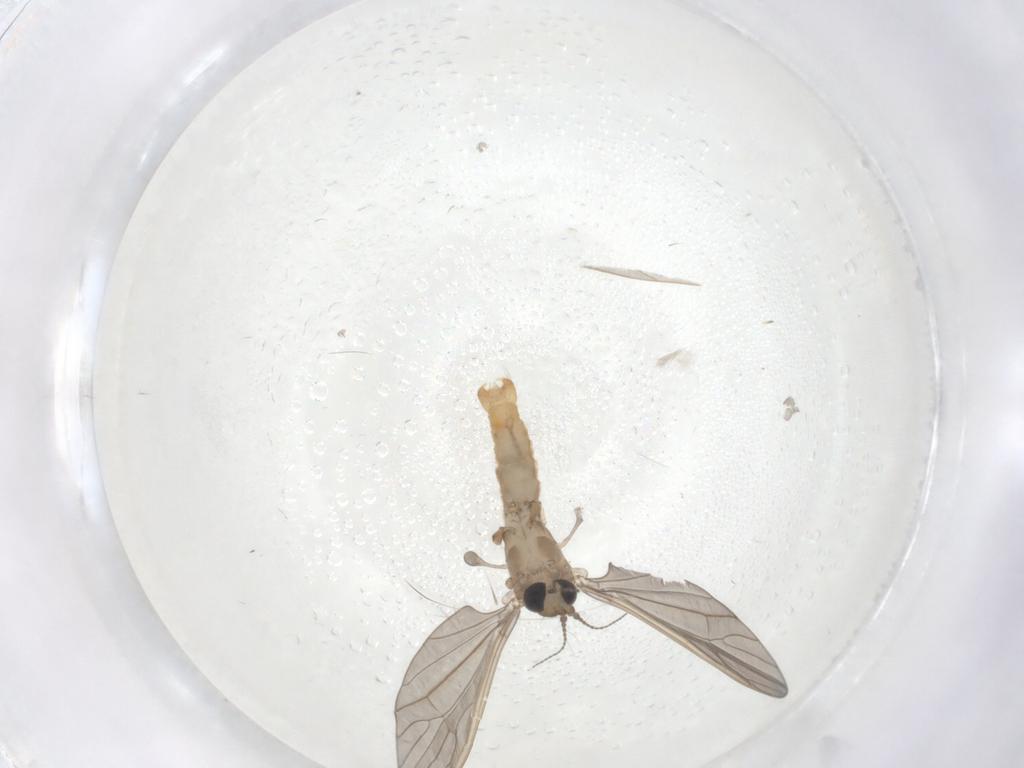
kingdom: Animalia
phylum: Arthropoda
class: Insecta
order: Diptera
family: Limoniidae
